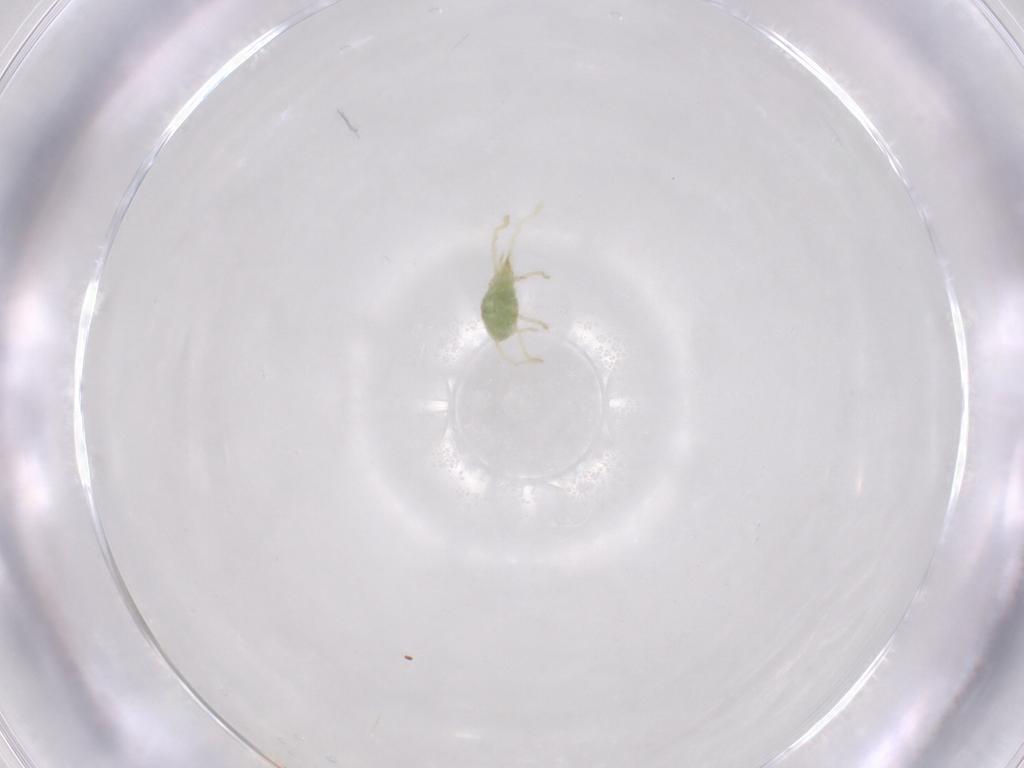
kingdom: Animalia
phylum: Arthropoda
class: Arachnida
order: Trombidiformes
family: Erythraeidae
